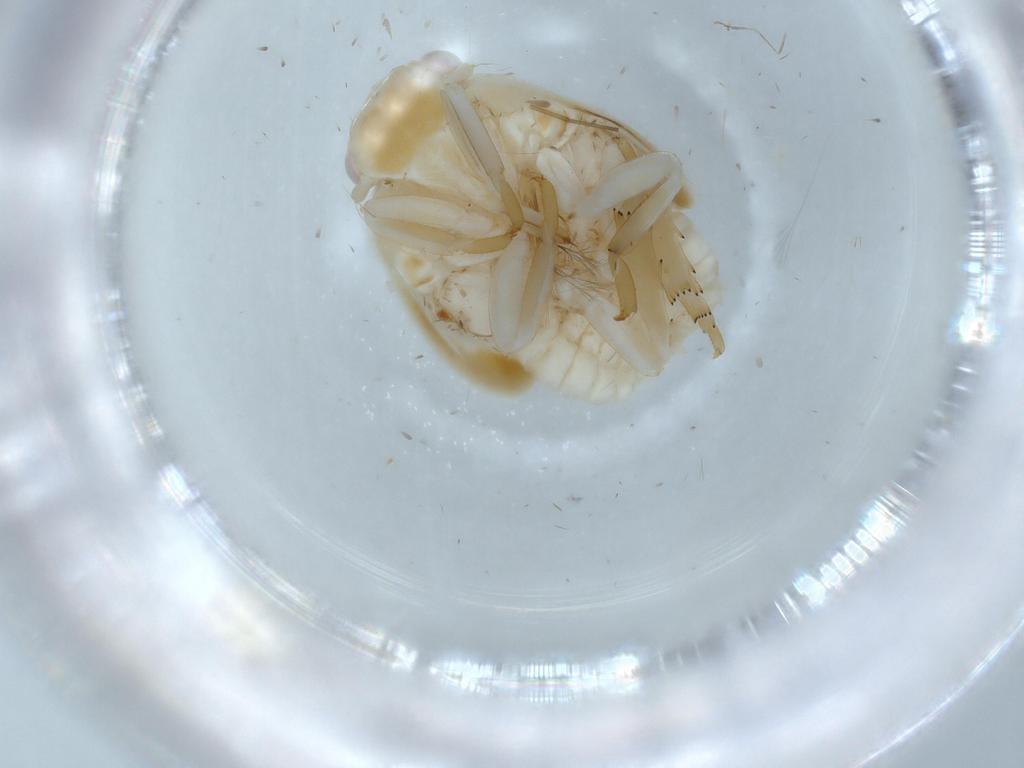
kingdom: Animalia
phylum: Arthropoda
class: Insecta
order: Hemiptera
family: Flatidae
